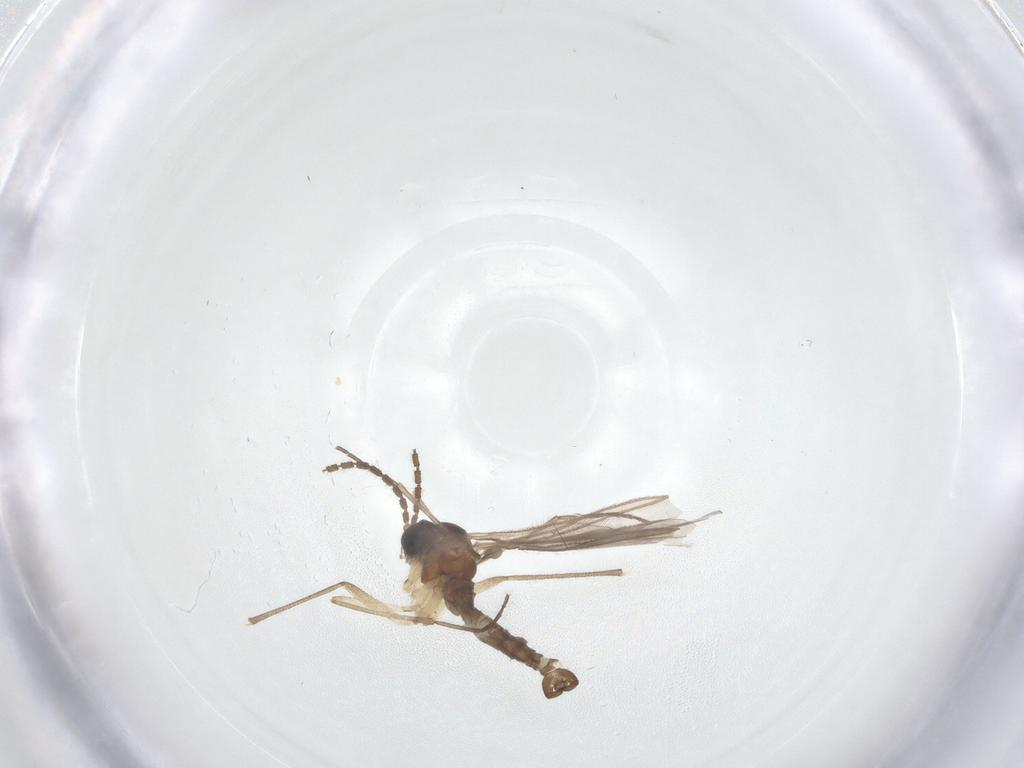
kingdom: Animalia
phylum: Arthropoda
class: Insecta
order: Diptera
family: Sciaridae
